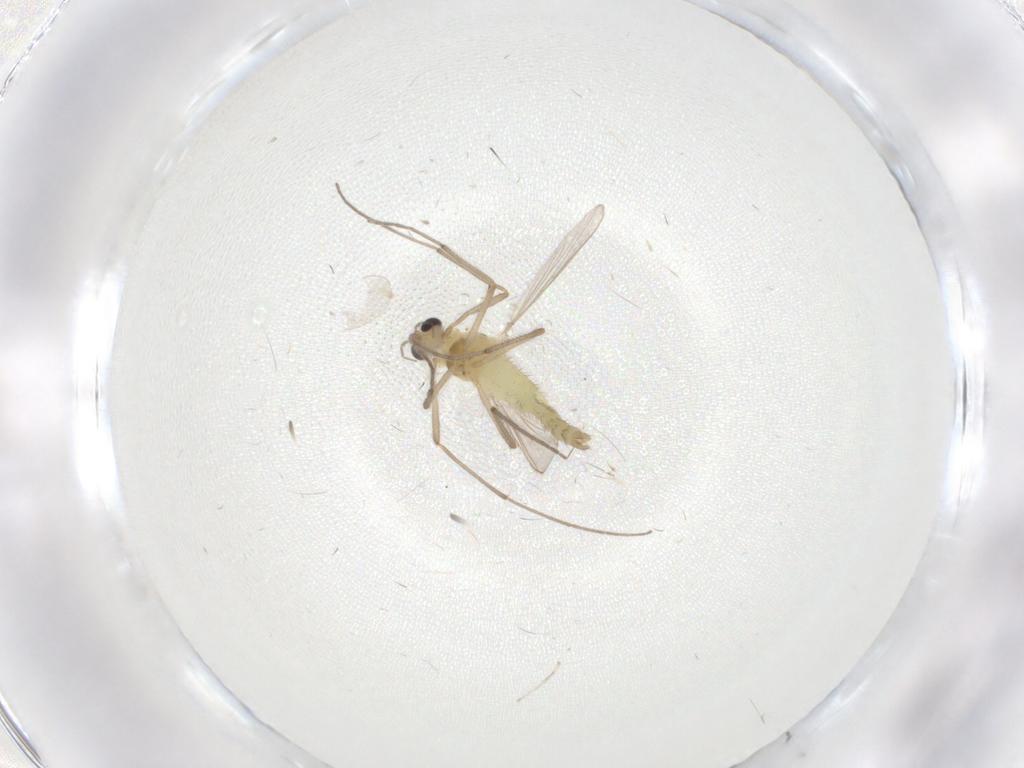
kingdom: Animalia
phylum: Arthropoda
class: Insecta
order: Diptera
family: Chironomidae
